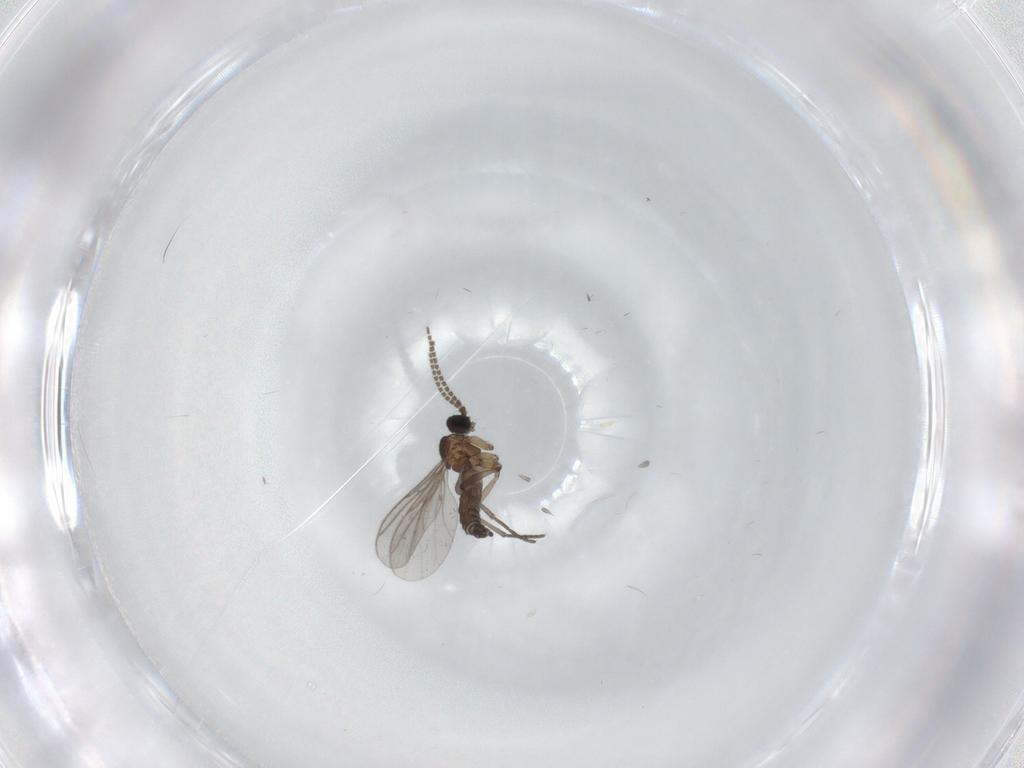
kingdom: Animalia
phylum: Arthropoda
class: Insecta
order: Diptera
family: Sciaridae
